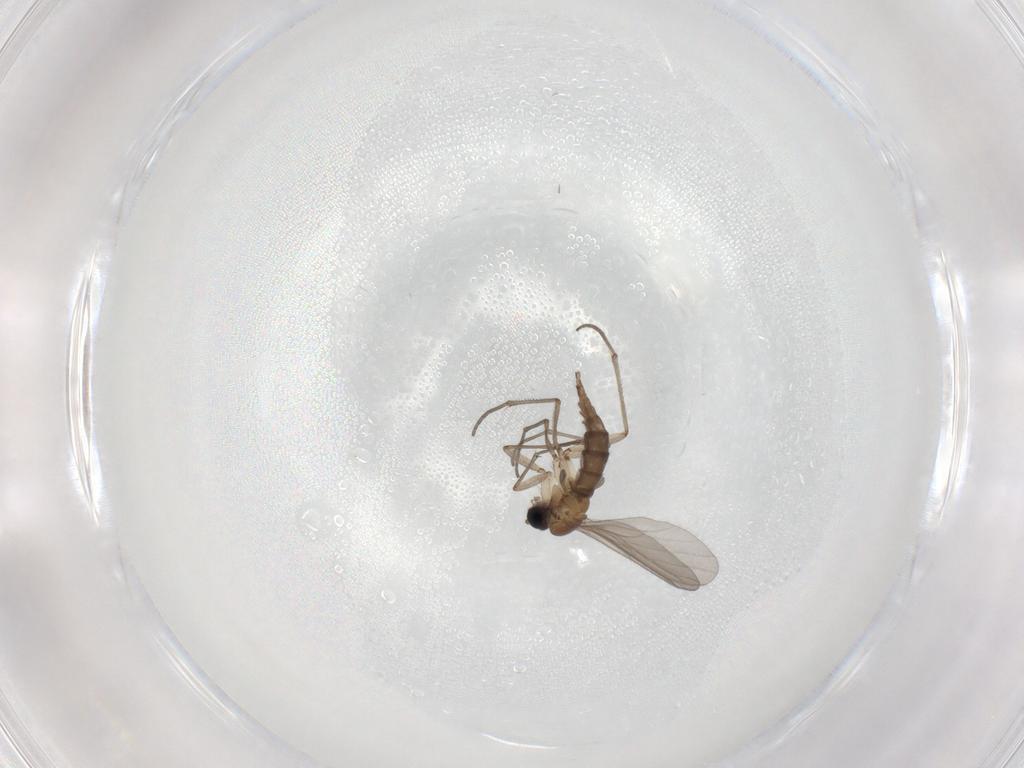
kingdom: Animalia
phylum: Arthropoda
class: Insecta
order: Diptera
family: Sciaridae
